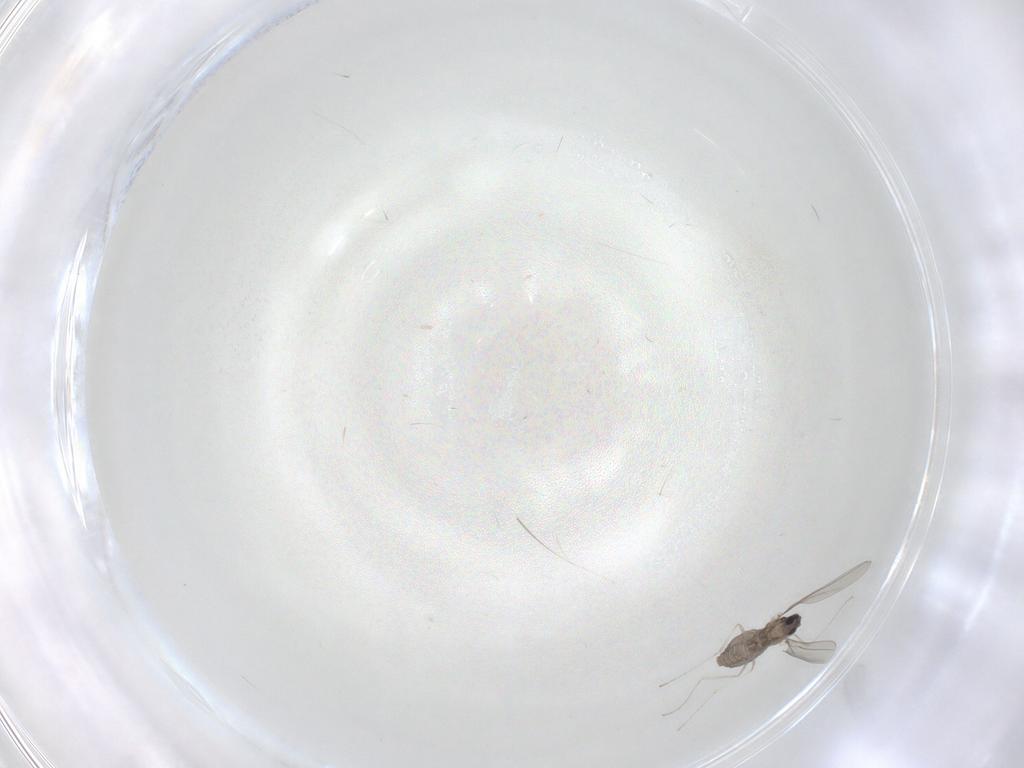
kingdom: Animalia
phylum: Arthropoda
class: Insecta
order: Diptera
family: Cecidomyiidae
